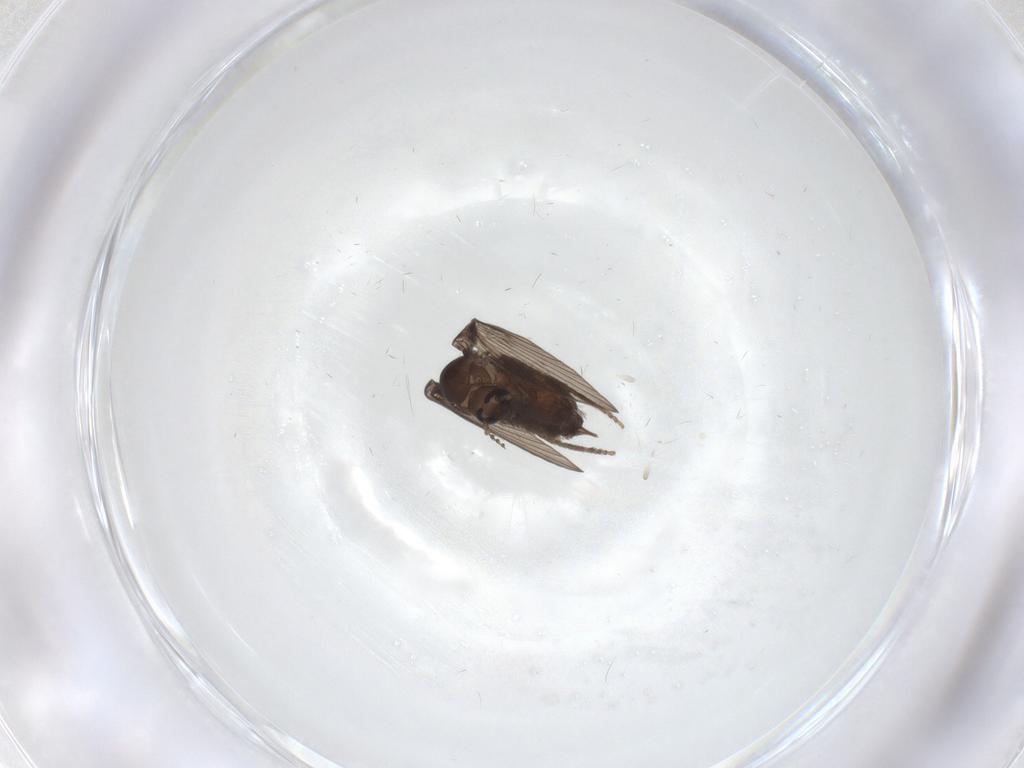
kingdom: Animalia
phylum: Arthropoda
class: Insecta
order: Diptera
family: Psychodidae
